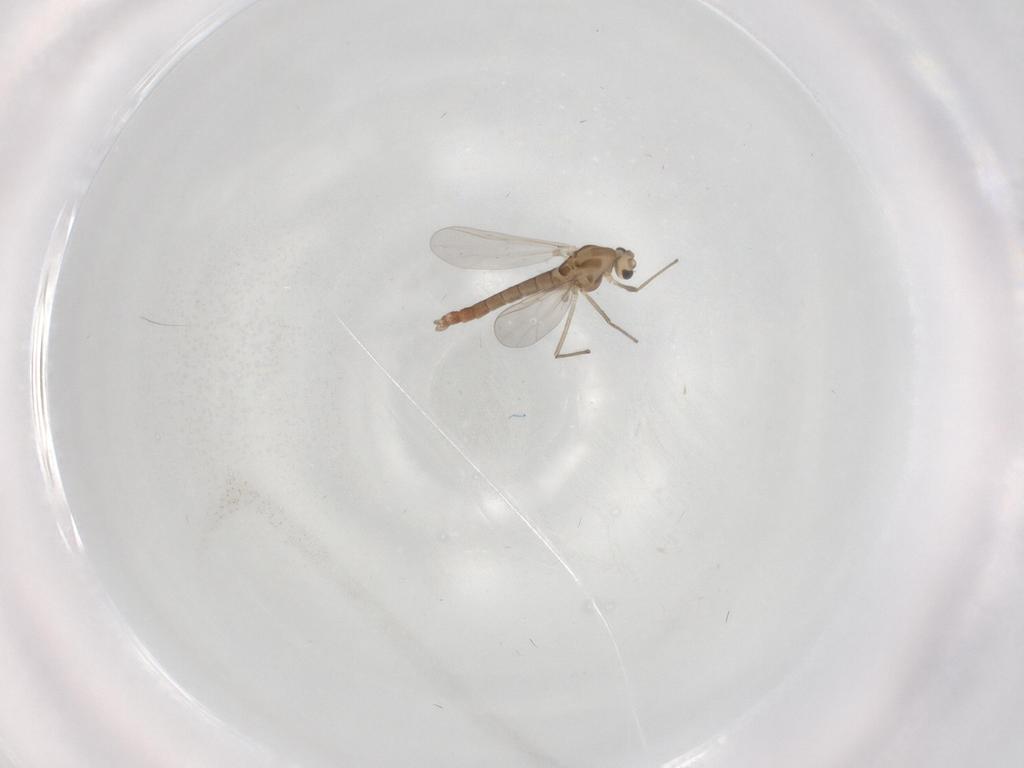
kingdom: Animalia
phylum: Arthropoda
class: Insecta
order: Diptera
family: Chironomidae
